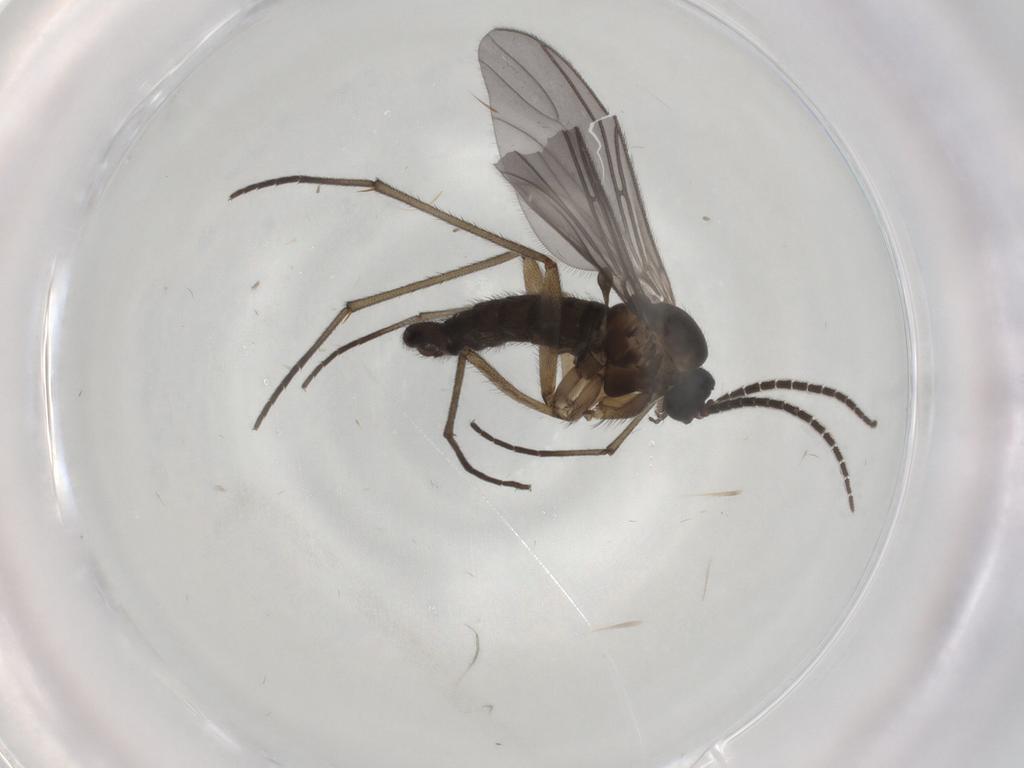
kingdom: Animalia
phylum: Arthropoda
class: Insecta
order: Diptera
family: Sciaridae
